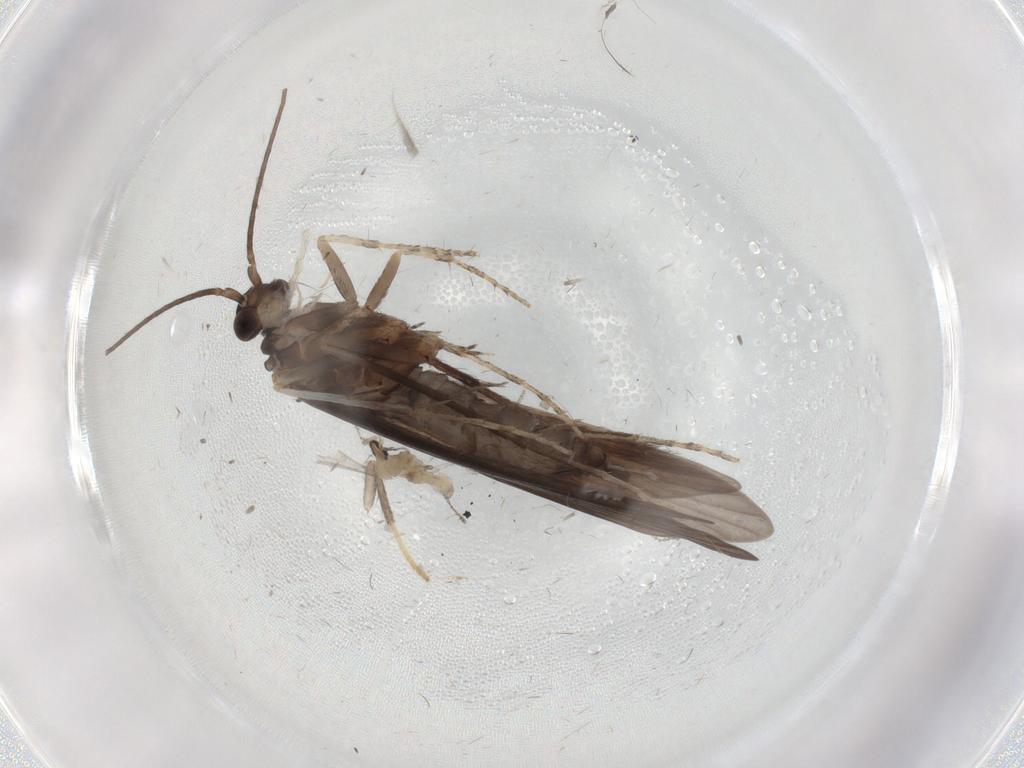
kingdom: Animalia
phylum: Arthropoda
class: Insecta
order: Trichoptera
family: Xiphocentronidae
